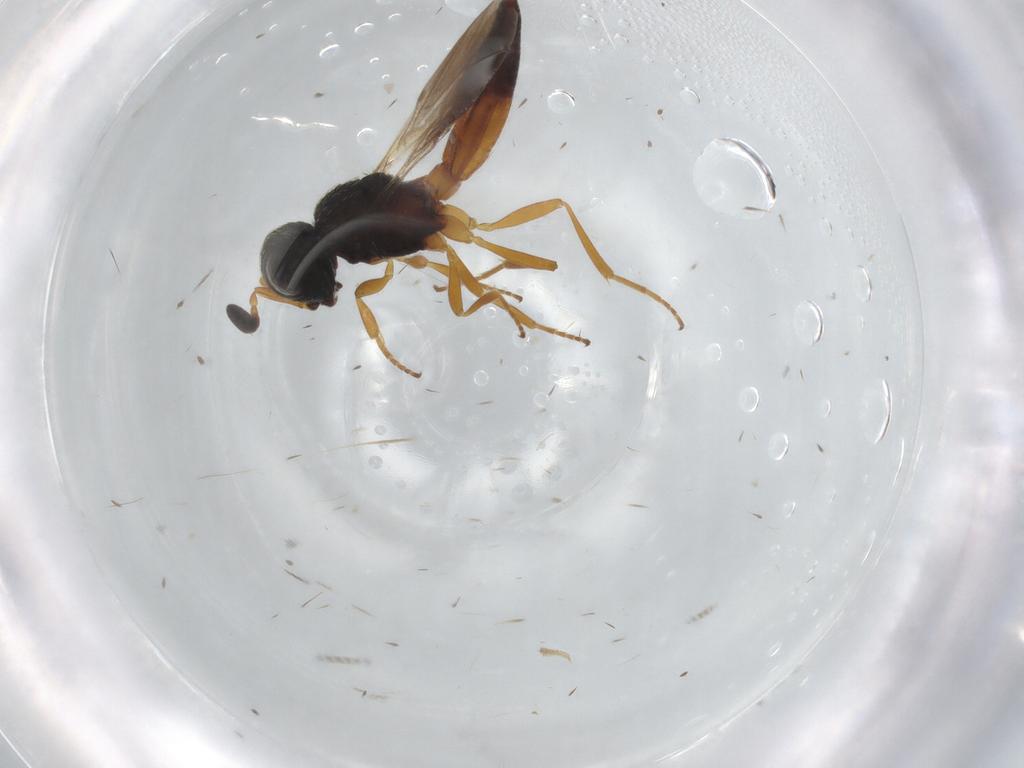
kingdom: Animalia
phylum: Arthropoda
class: Insecta
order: Hymenoptera
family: Scelionidae
